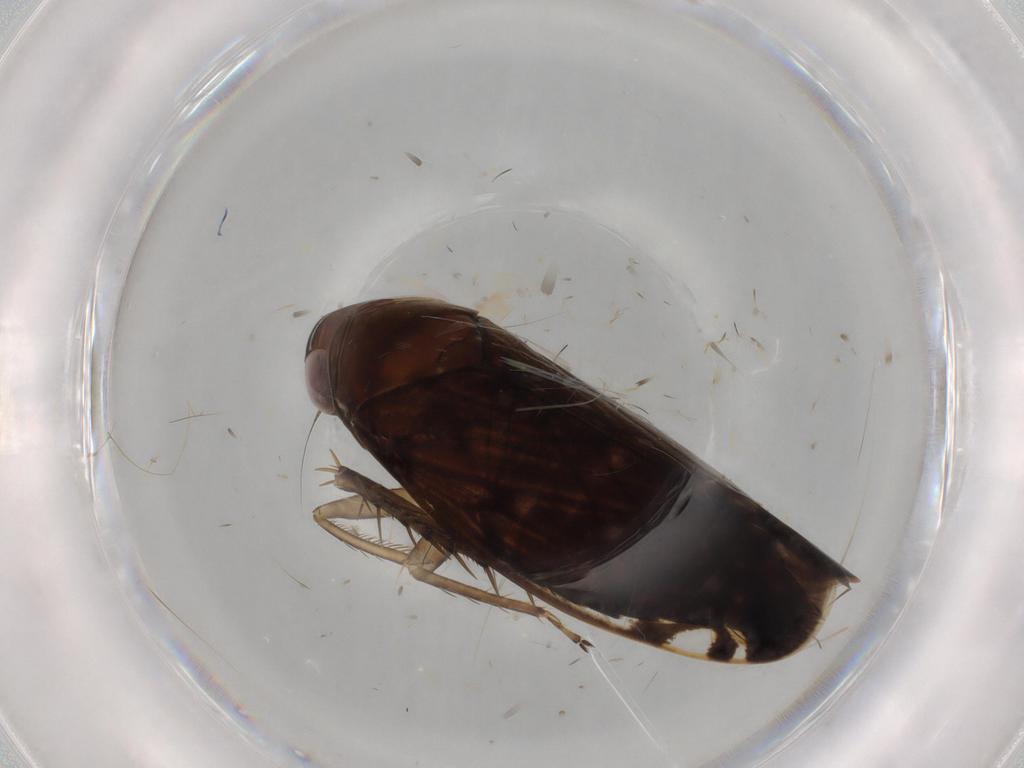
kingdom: Animalia
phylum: Arthropoda
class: Insecta
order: Hemiptera
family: Cicadellidae
